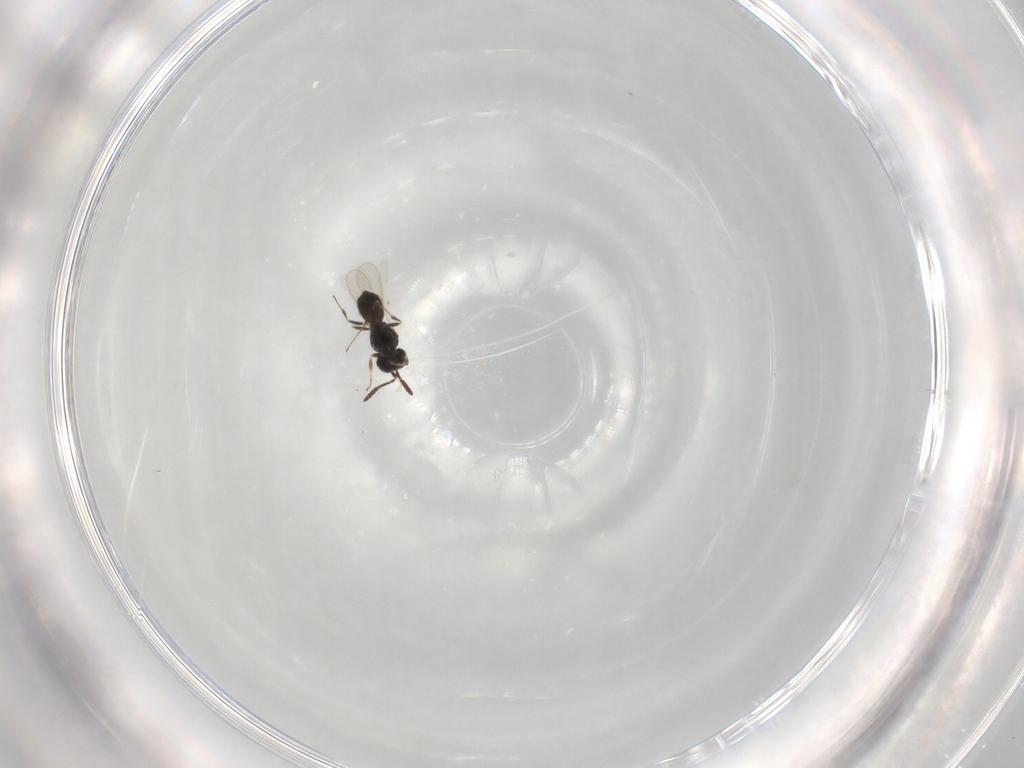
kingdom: Animalia
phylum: Arthropoda
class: Insecta
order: Hymenoptera
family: Scelionidae
